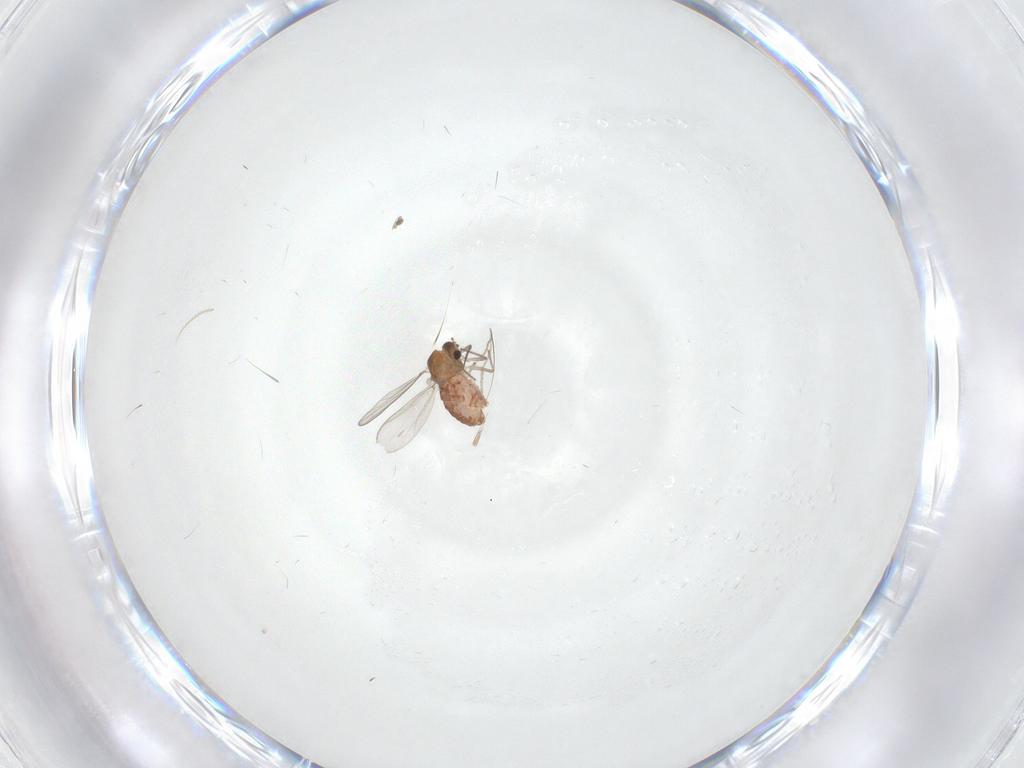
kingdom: Animalia
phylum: Arthropoda
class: Insecta
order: Diptera
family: Chironomidae
